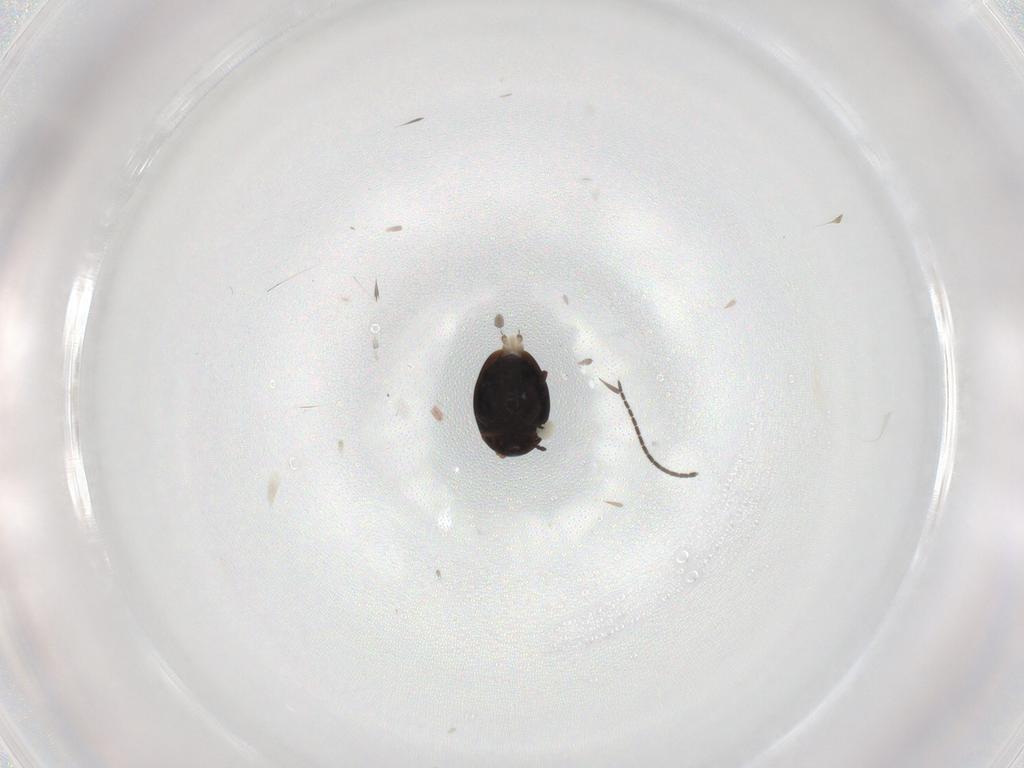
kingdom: Animalia
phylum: Arthropoda
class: Insecta
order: Coleoptera
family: Corylophidae
